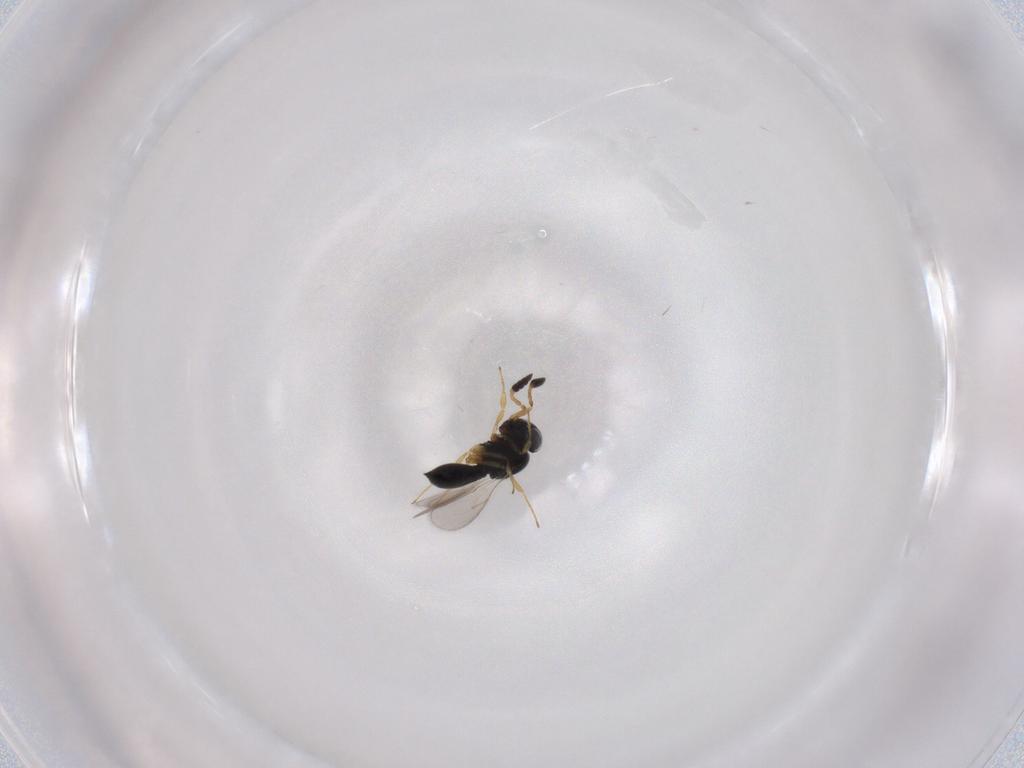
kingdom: Animalia
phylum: Arthropoda
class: Insecta
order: Hymenoptera
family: Scelionidae
